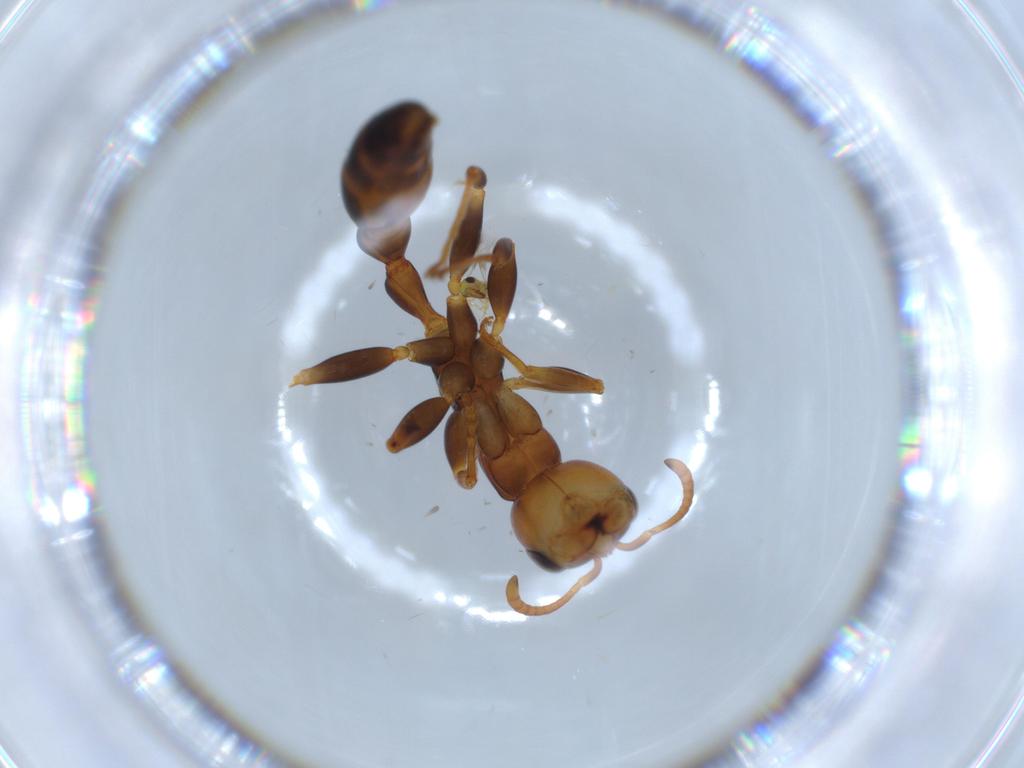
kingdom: Animalia
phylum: Arthropoda
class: Insecta
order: Hymenoptera
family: Formicidae
